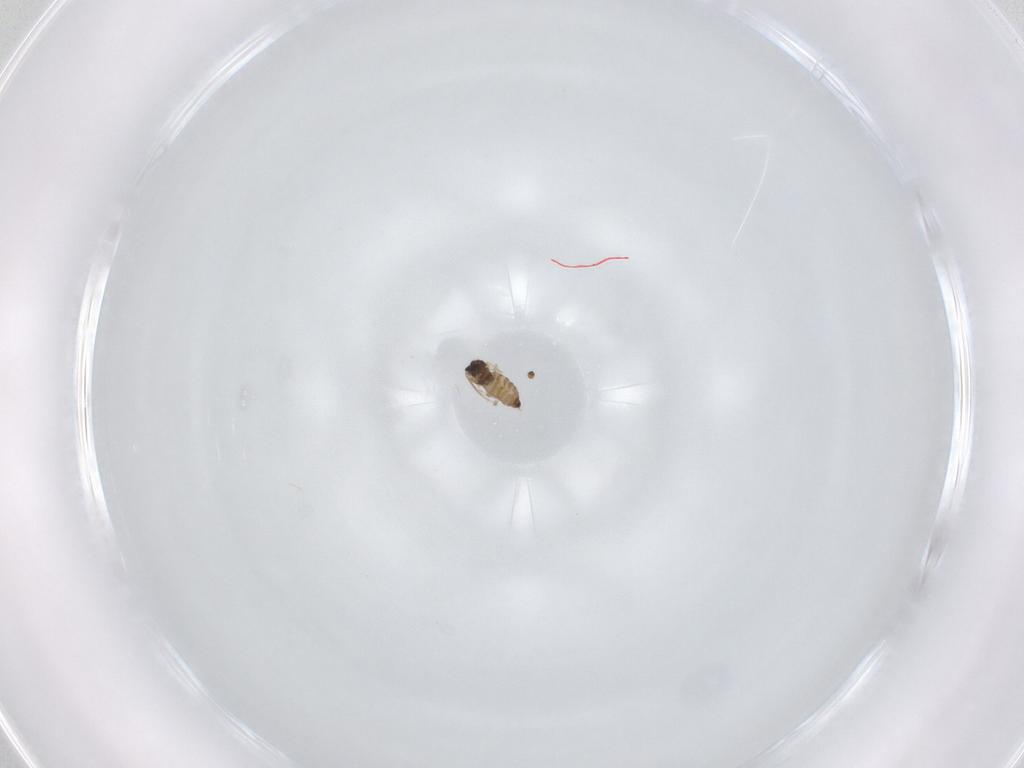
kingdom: Animalia
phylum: Arthropoda
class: Insecta
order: Diptera
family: Cecidomyiidae
